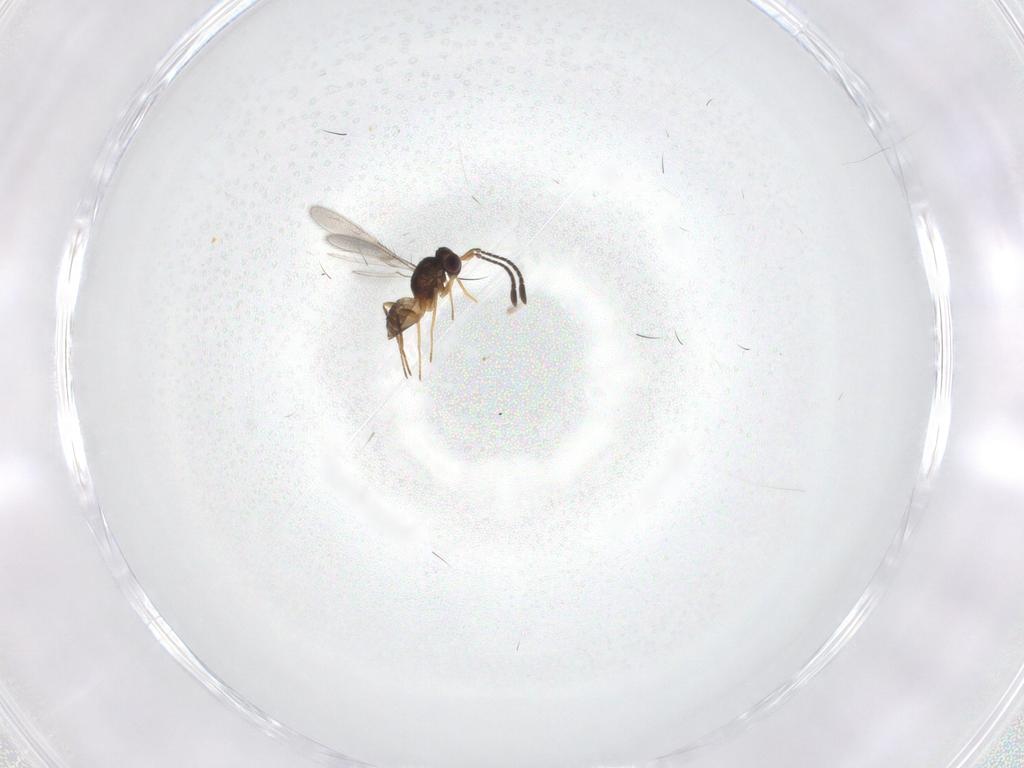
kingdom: Animalia
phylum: Arthropoda
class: Insecta
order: Hymenoptera
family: Mymaridae
